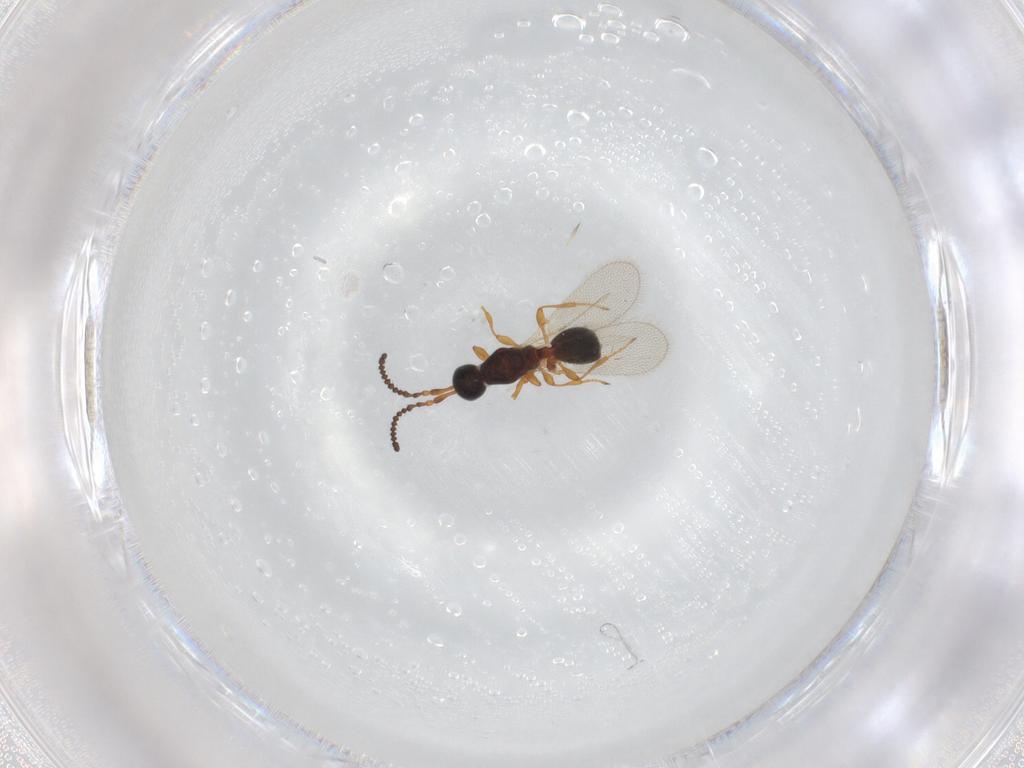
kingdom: Animalia
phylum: Arthropoda
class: Insecta
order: Hymenoptera
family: Diapriidae
